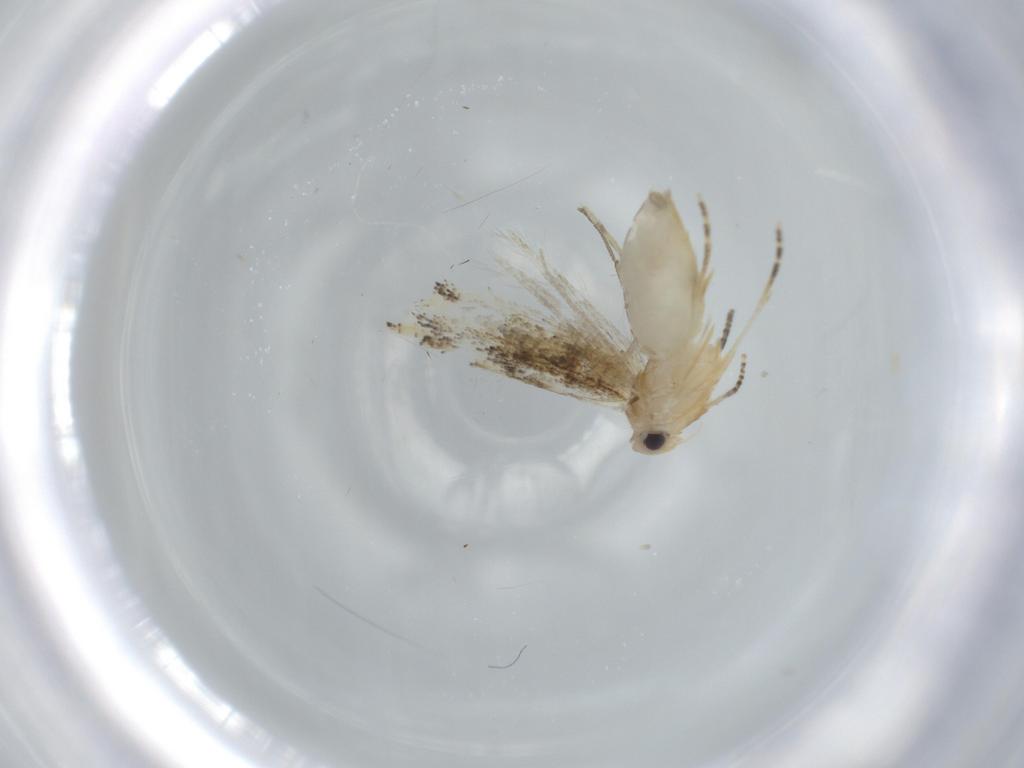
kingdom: Animalia
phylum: Arthropoda
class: Insecta
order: Lepidoptera
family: Bucculatricidae
